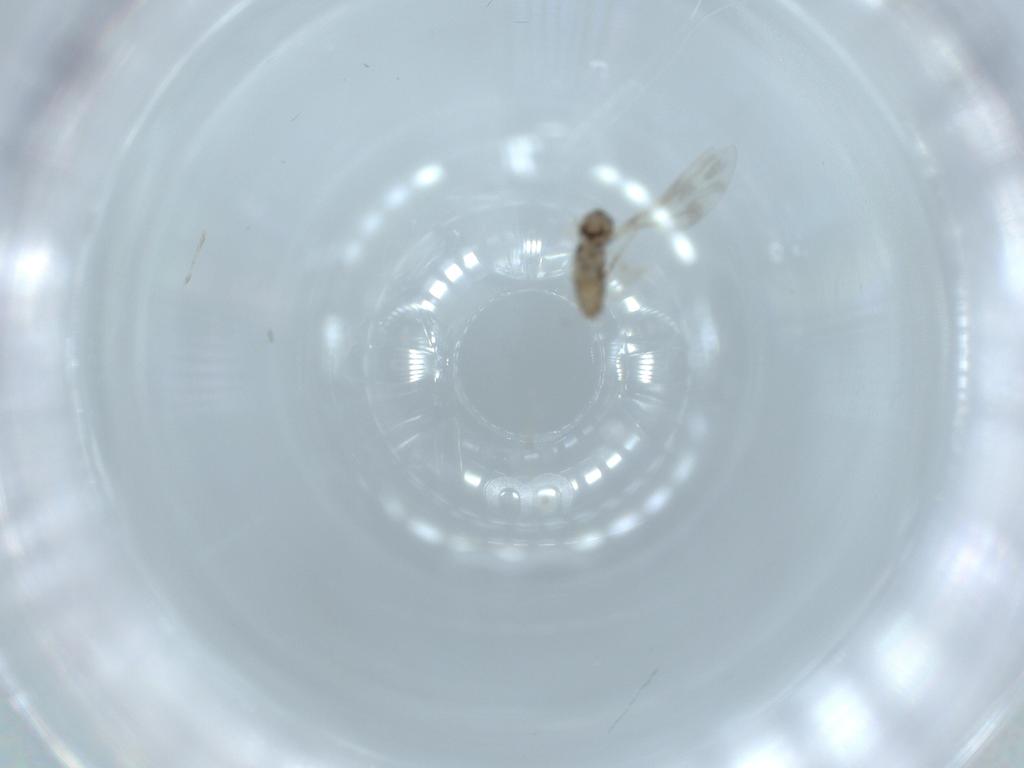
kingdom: Animalia
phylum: Arthropoda
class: Insecta
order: Diptera
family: Cecidomyiidae
